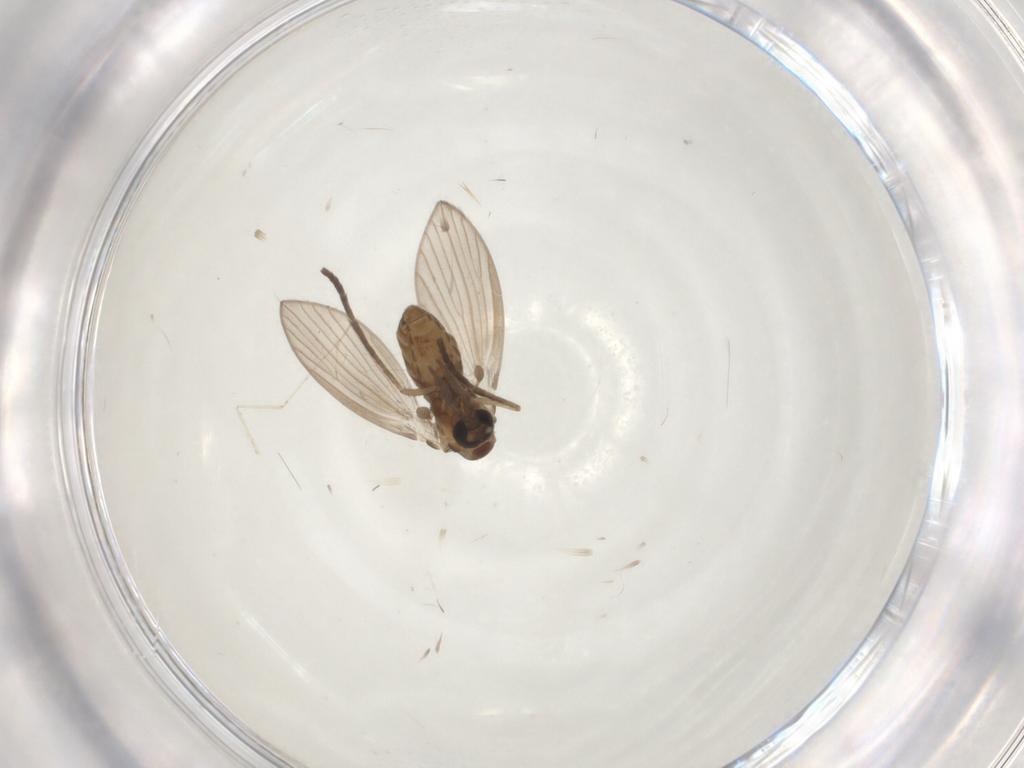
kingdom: Animalia
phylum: Arthropoda
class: Insecta
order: Diptera
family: Psychodidae
